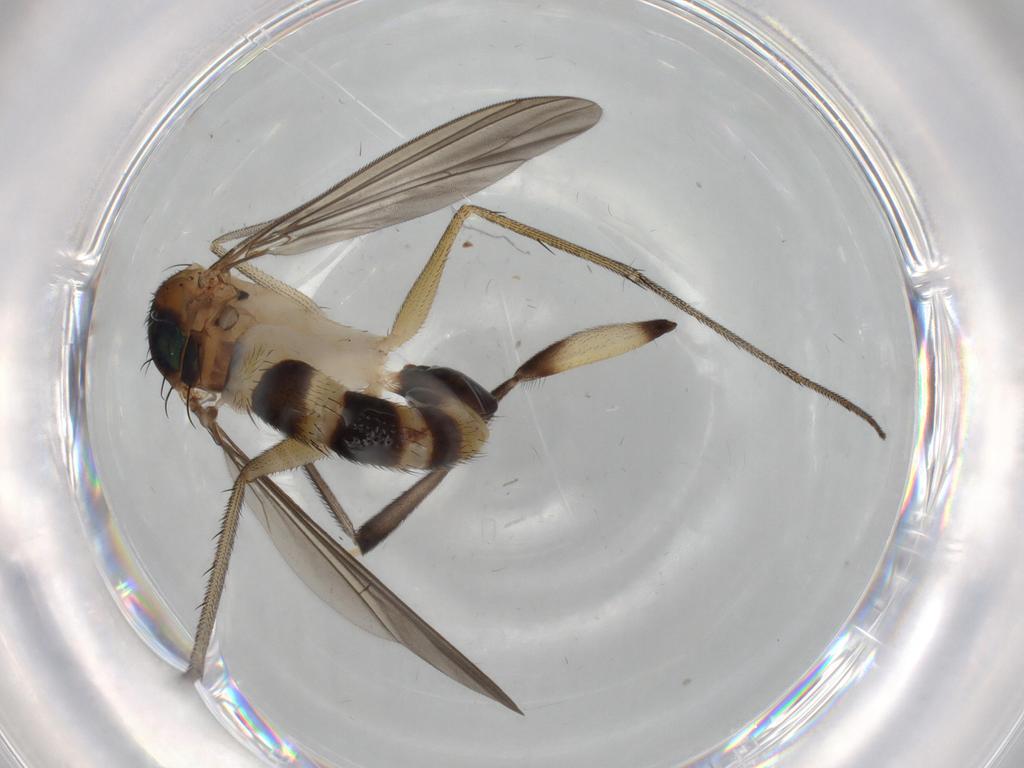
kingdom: Animalia
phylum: Arthropoda
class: Insecta
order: Diptera
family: Dolichopodidae
